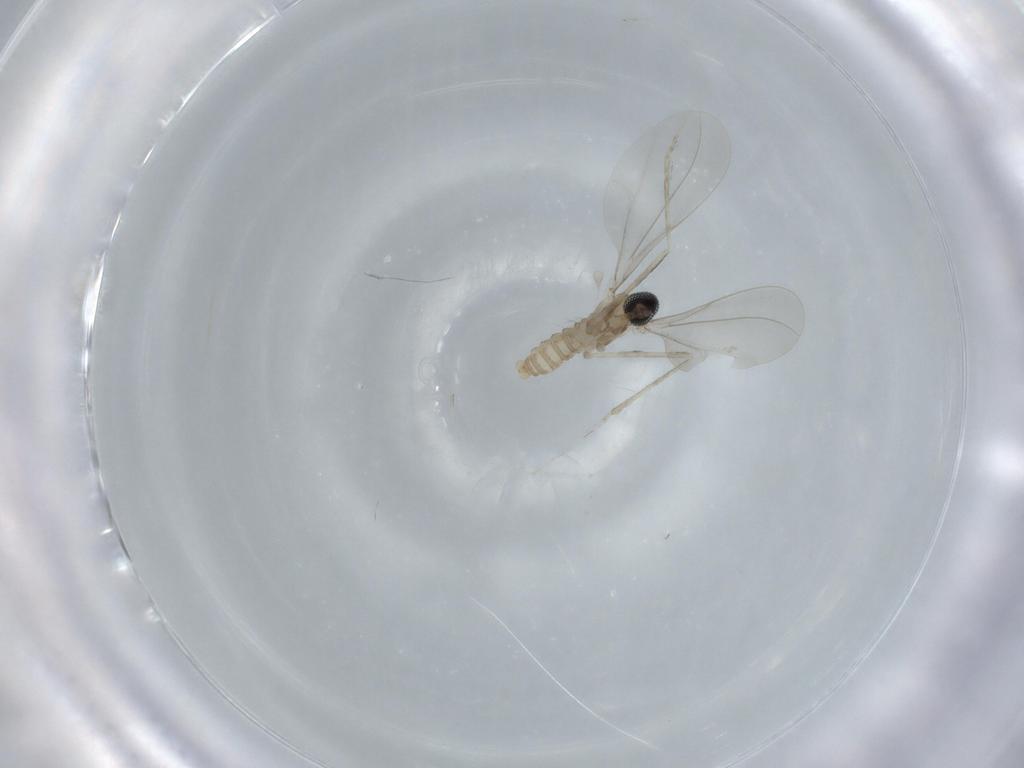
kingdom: Animalia
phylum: Arthropoda
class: Insecta
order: Diptera
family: Cecidomyiidae
